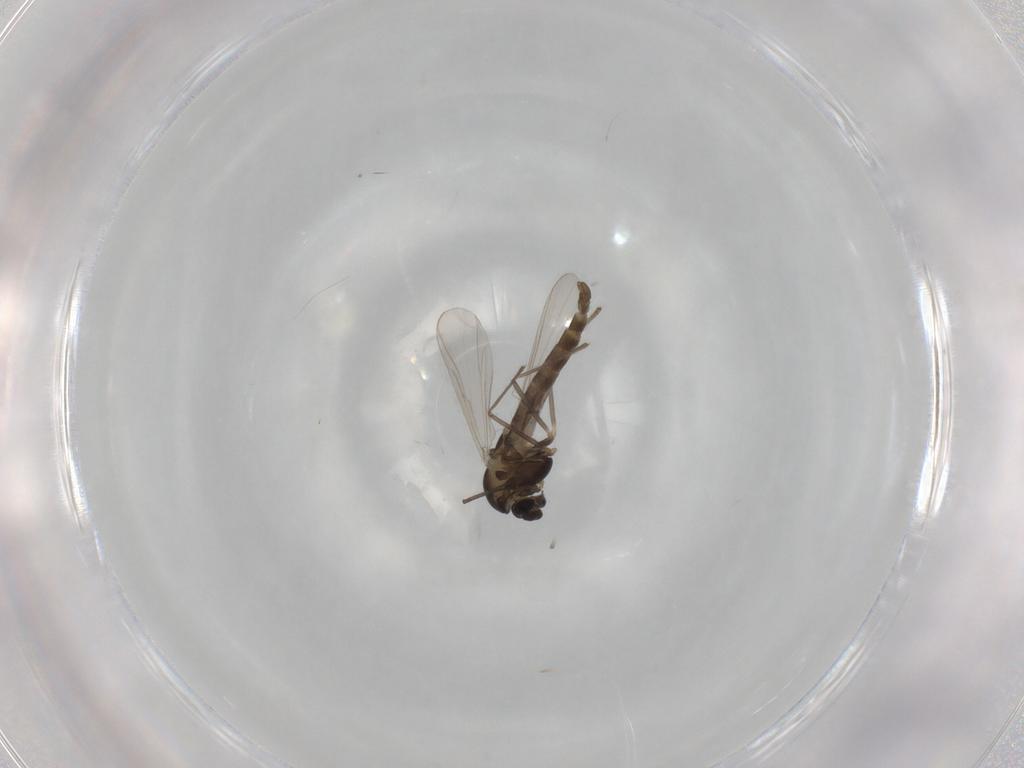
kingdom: Animalia
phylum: Arthropoda
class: Insecta
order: Diptera
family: Chironomidae
